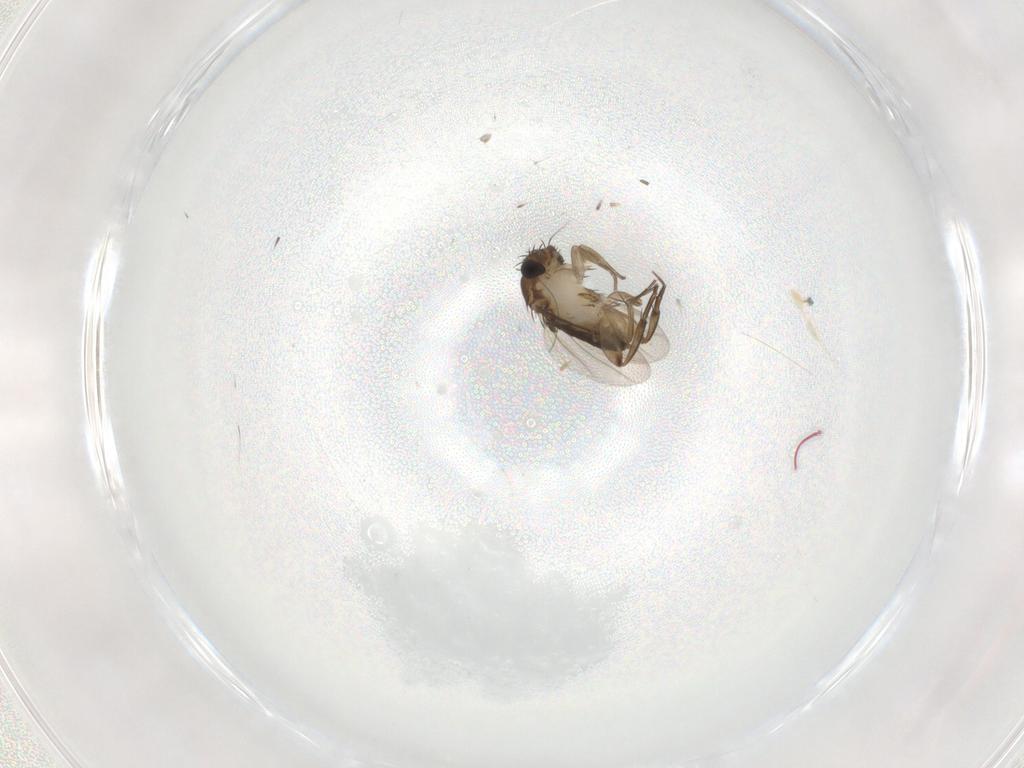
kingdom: Animalia
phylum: Arthropoda
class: Insecta
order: Diptera
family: Phoridae
